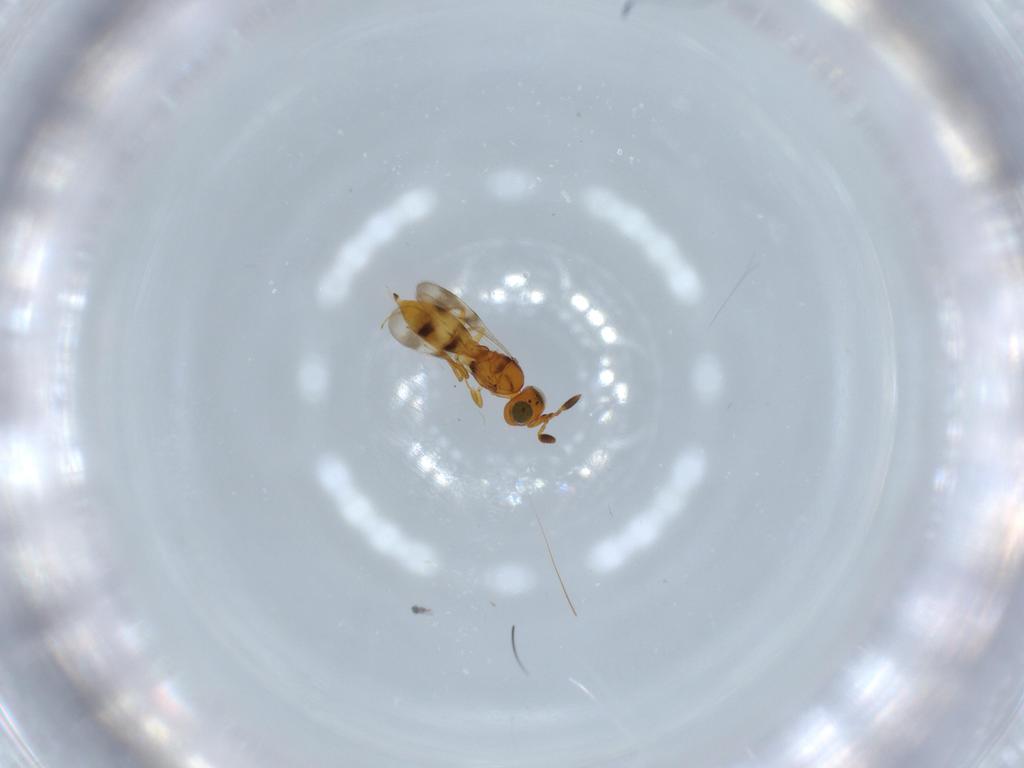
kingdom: Animalia
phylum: Arthropoda
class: Insecta
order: Hymenoptera
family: Scelionidae
